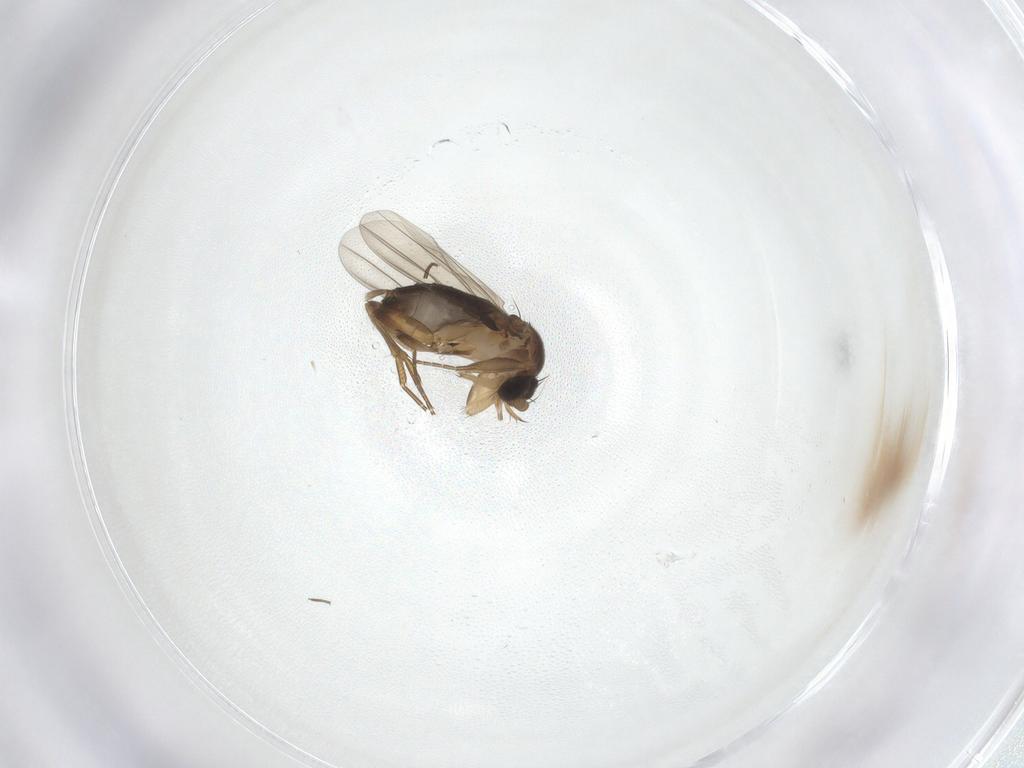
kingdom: Animalia
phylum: Arthropoda
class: Insecta
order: Diptera
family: Phoridae
